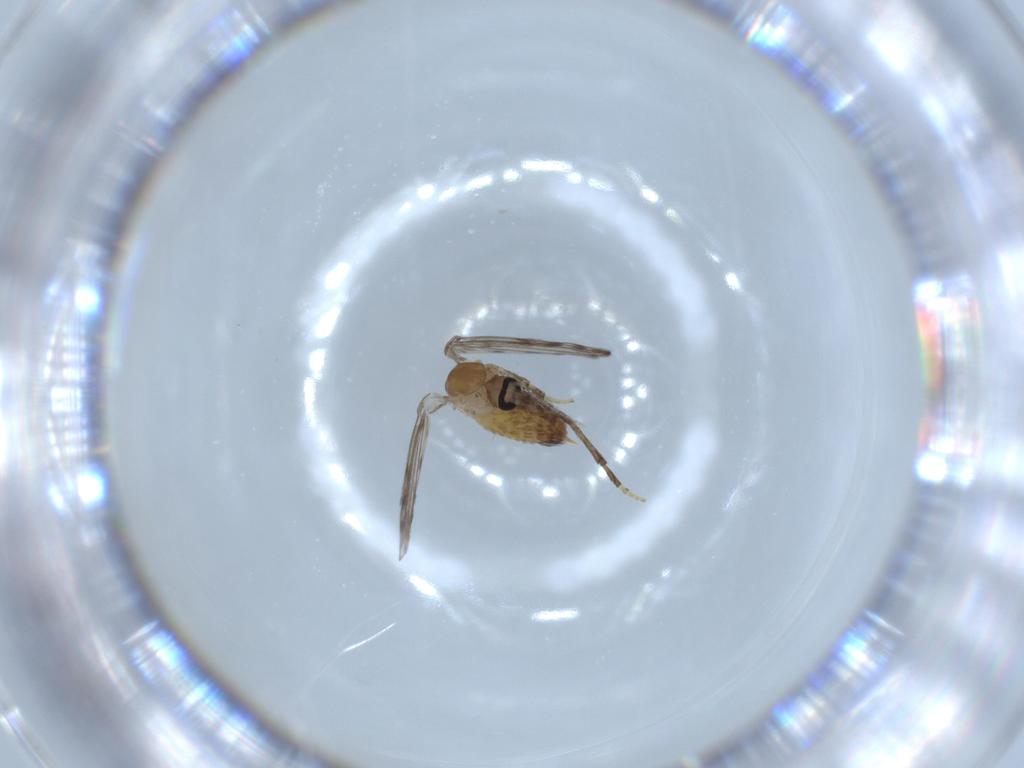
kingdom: Animalia
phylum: Arthropoda
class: Insecta
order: Diptera
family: Psychodidae
